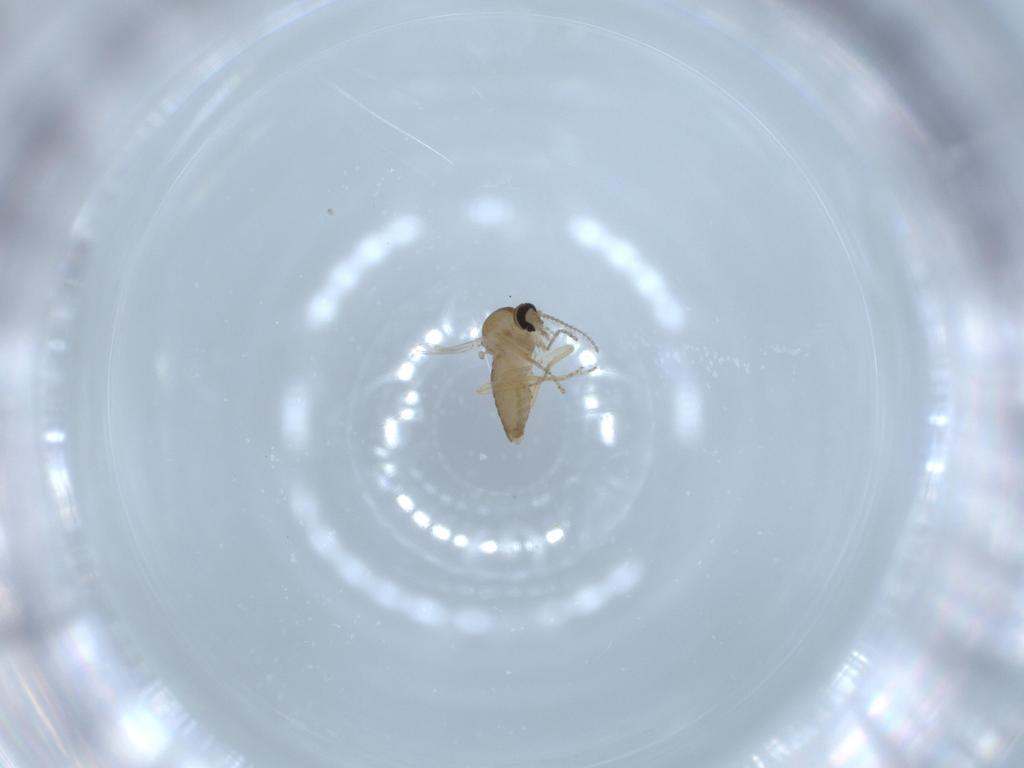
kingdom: Animalia
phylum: Arthropoda
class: Insecta
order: Diptera
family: Ceratopogonidae
